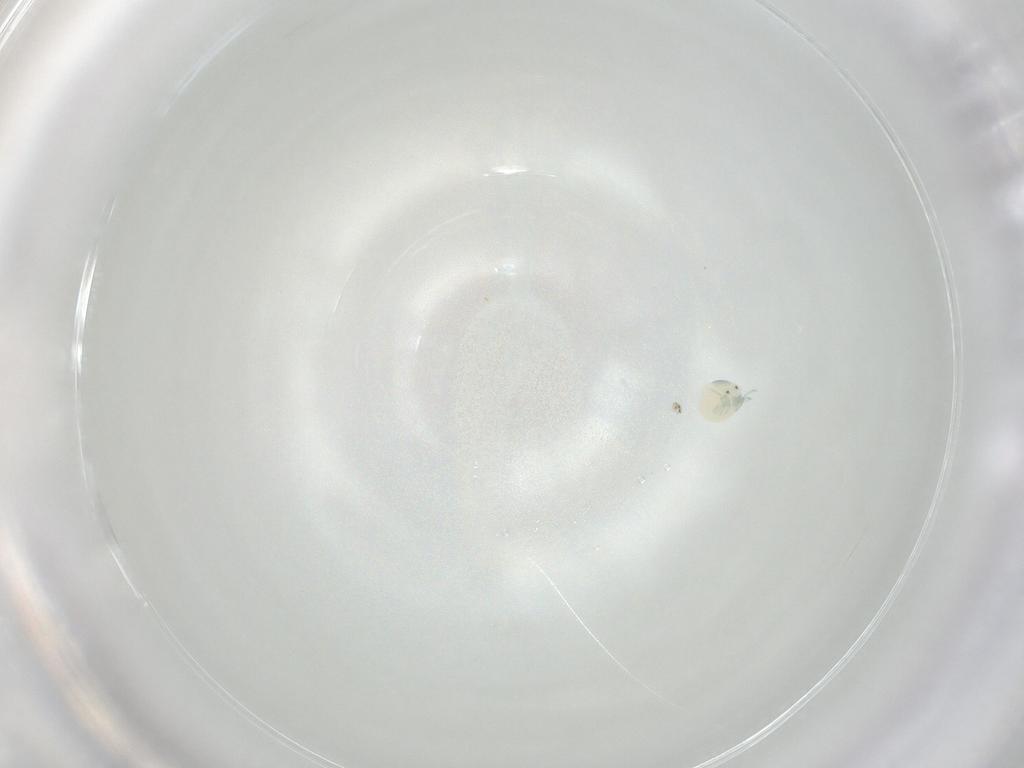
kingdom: Animalia
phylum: Arthropoda
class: Arachnida
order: Trombidiformes
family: Arrenuridae
